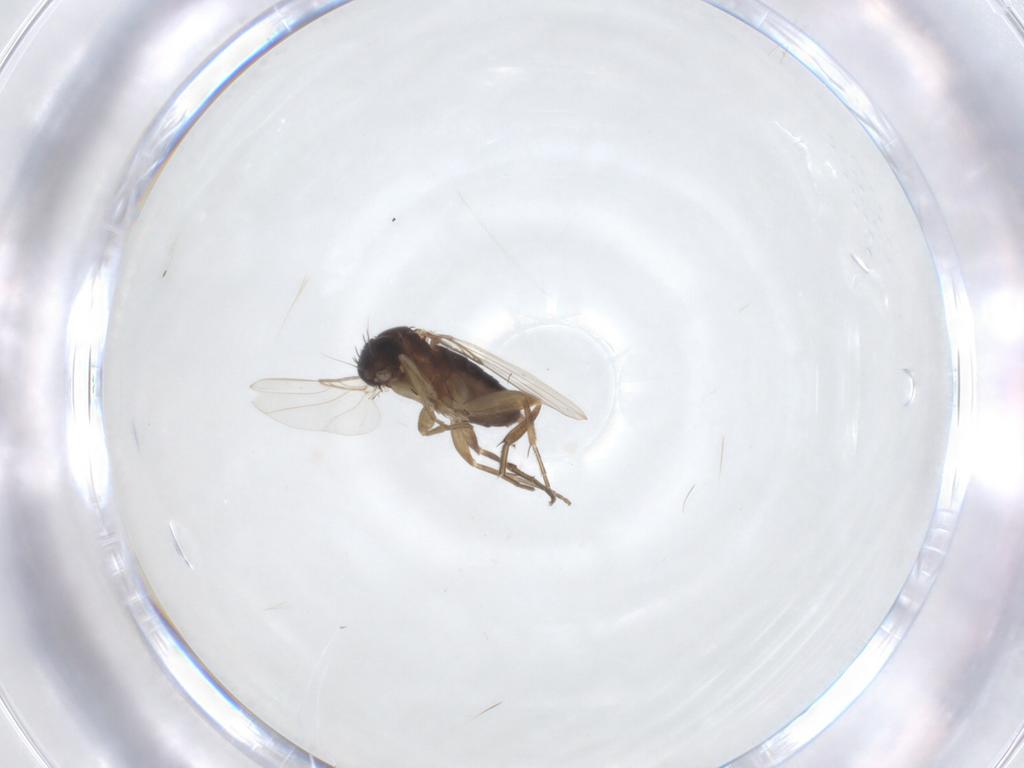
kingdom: Animalia
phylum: Arthropoda
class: Insecta
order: Diptera
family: Phoridae
